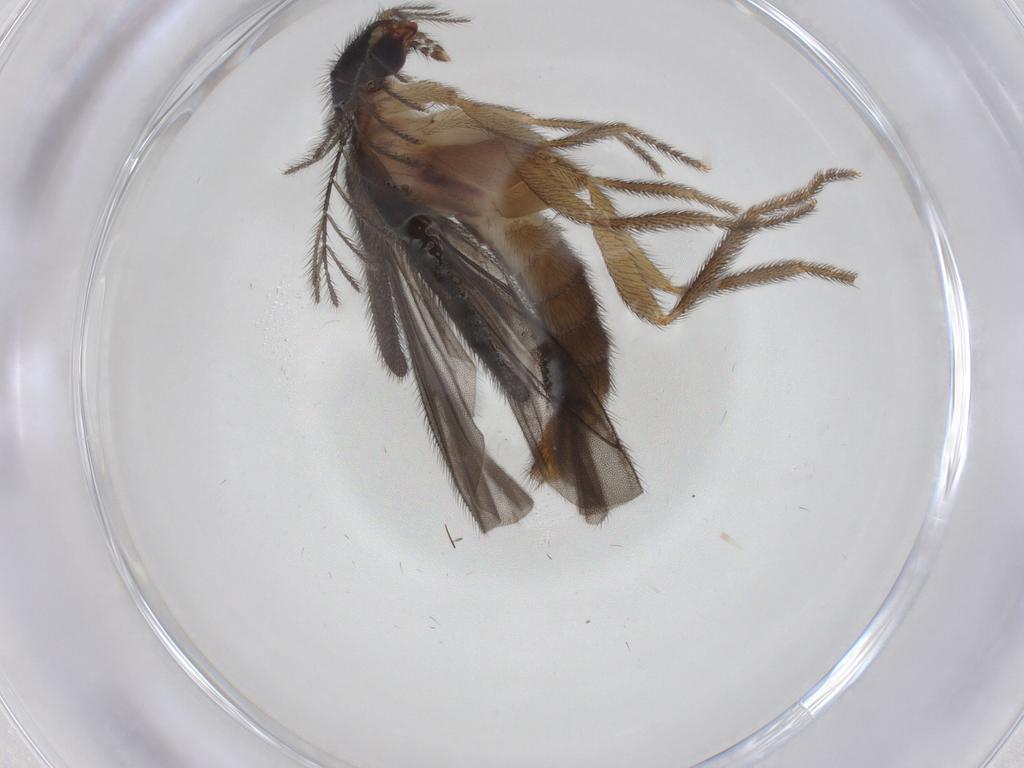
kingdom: Animalia
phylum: Arthropoda
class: Insecta
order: Coleoptera
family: Phengodidae
